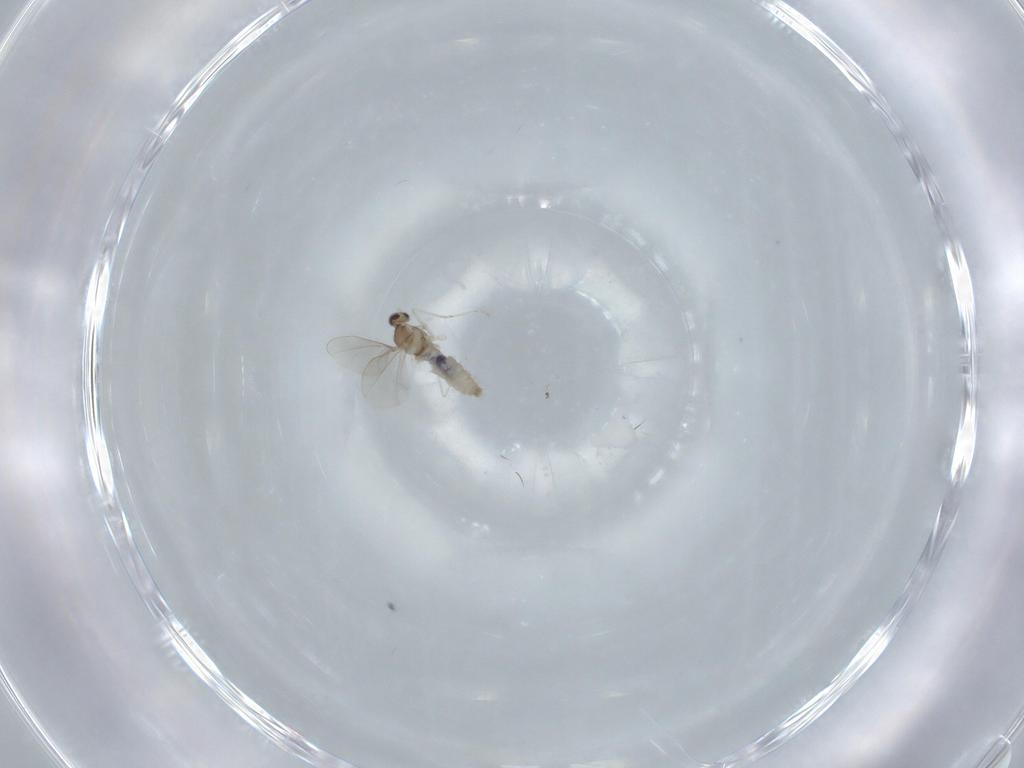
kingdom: Animalia
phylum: Arthropoda
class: Insecta
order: Diptera
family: Cecidomyiidae
